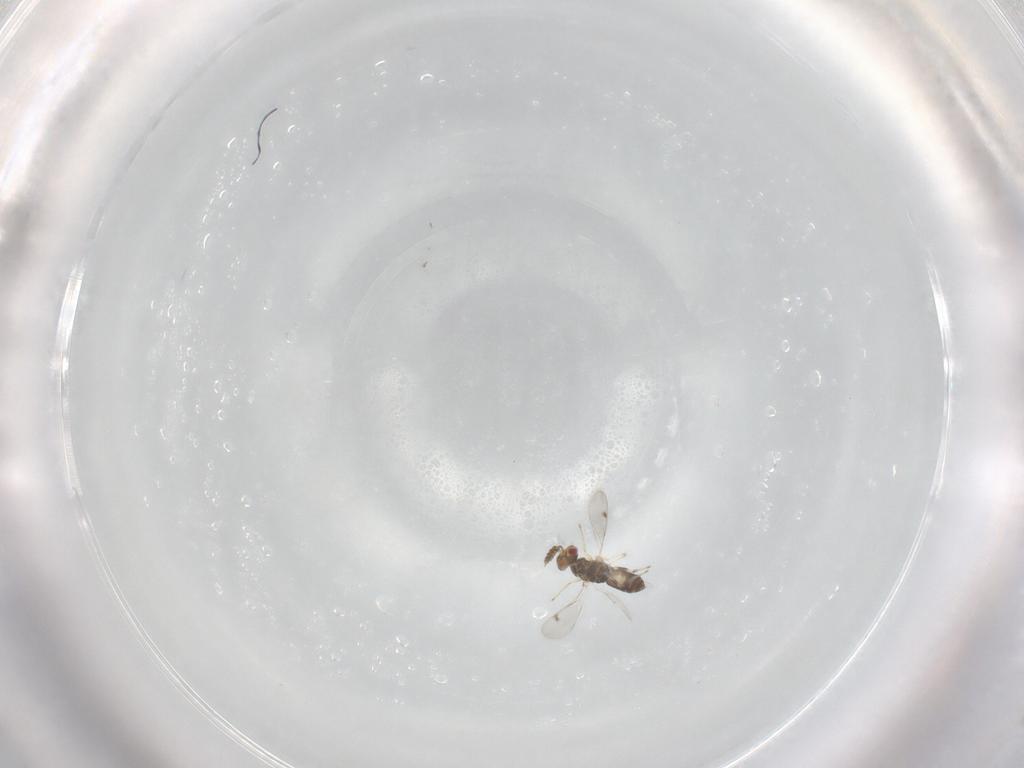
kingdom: Animalia
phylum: Arthropoda
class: Insecta
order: Hymenoptera
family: Eulophidae
